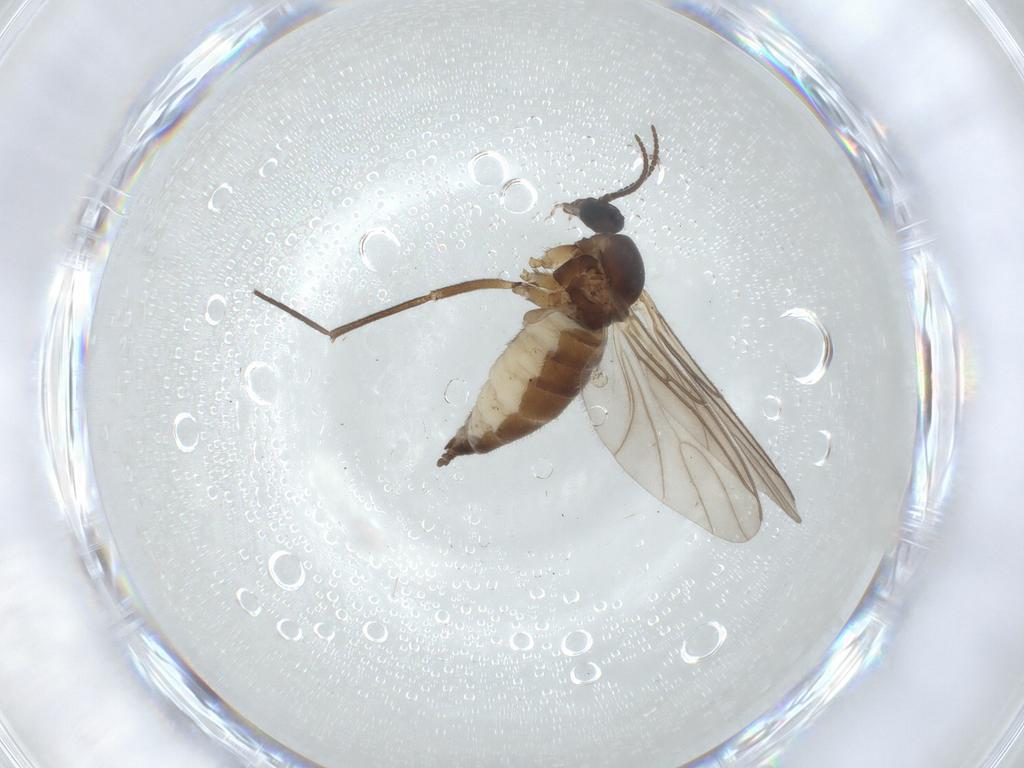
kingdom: Animalia
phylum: Arthropoda
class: Insecta
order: Diptera
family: Sciaridae
